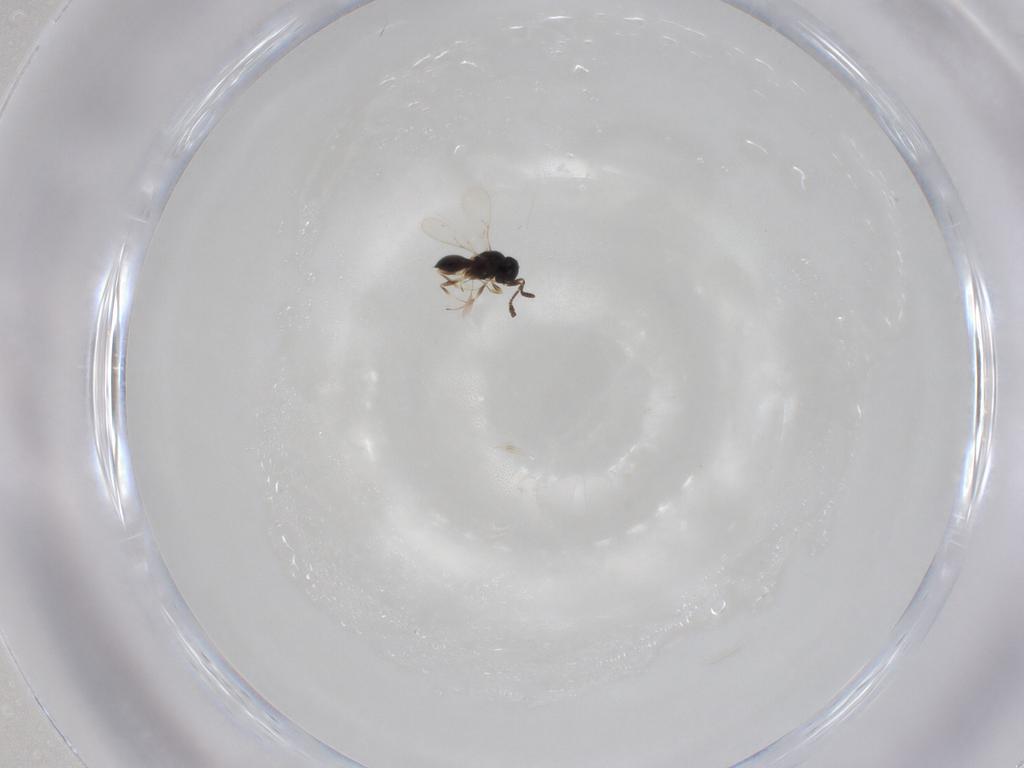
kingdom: Animalia
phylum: Arthropoda
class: Insecta
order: Hymenoptera
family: Scelionidae
